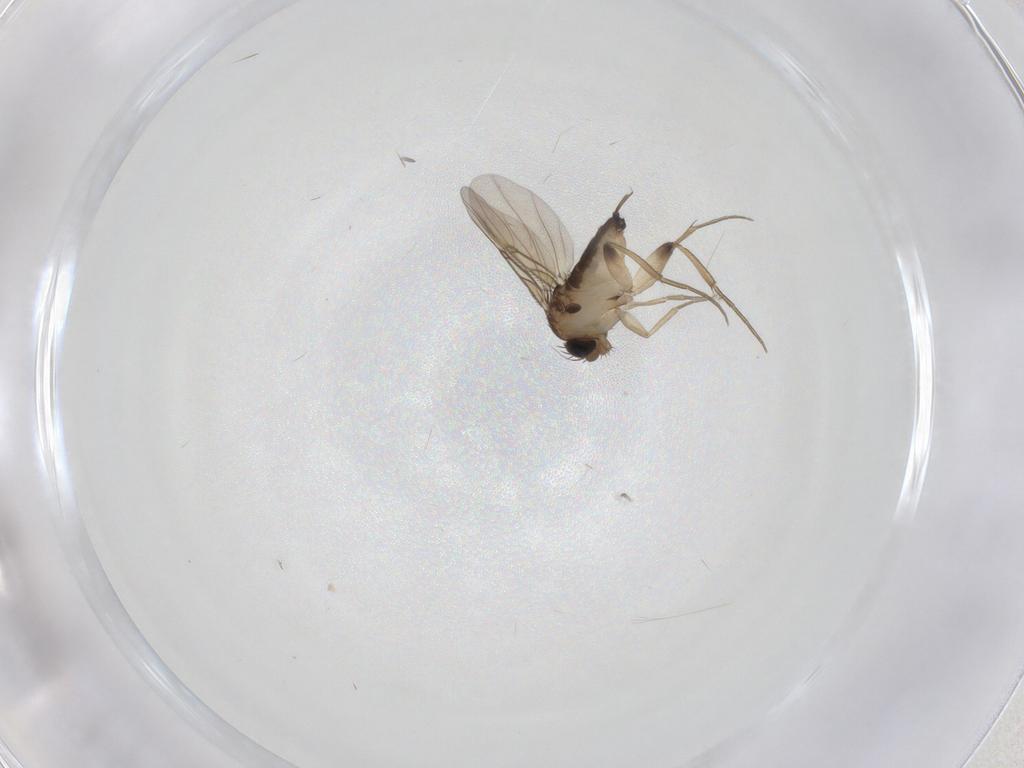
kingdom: Animalia
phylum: Arthropoda
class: Insecta
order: Diptera
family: Phoridae
